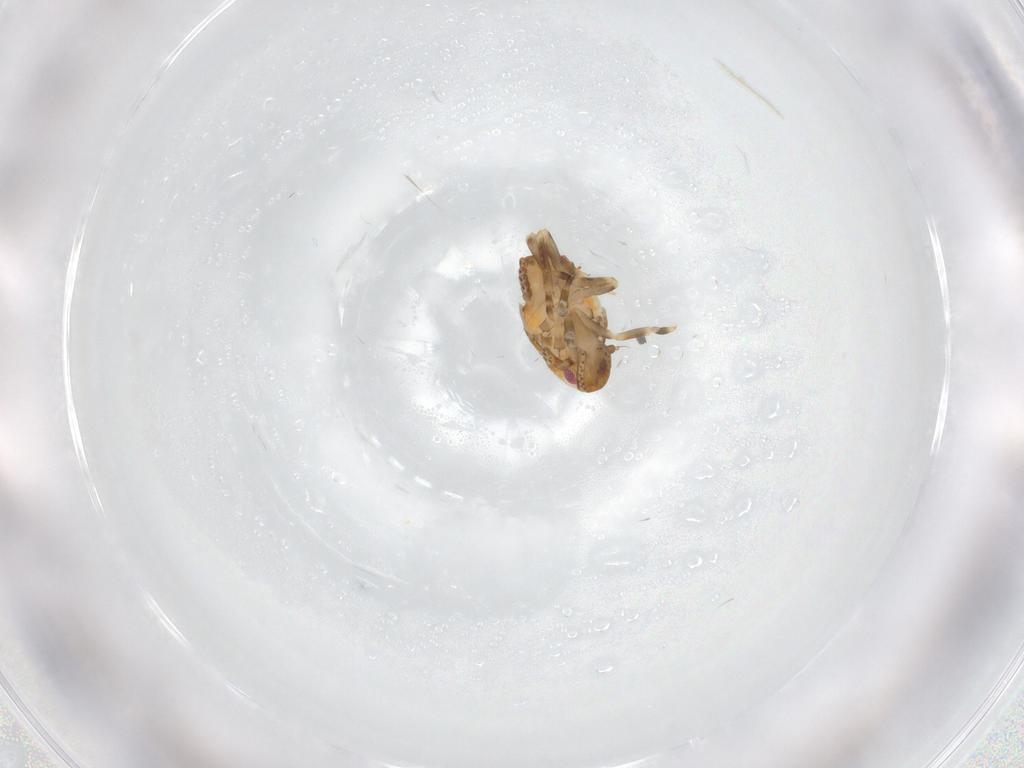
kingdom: Animalia
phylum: Arthropoda
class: Insecta
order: Hemiptera
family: Flatidae
